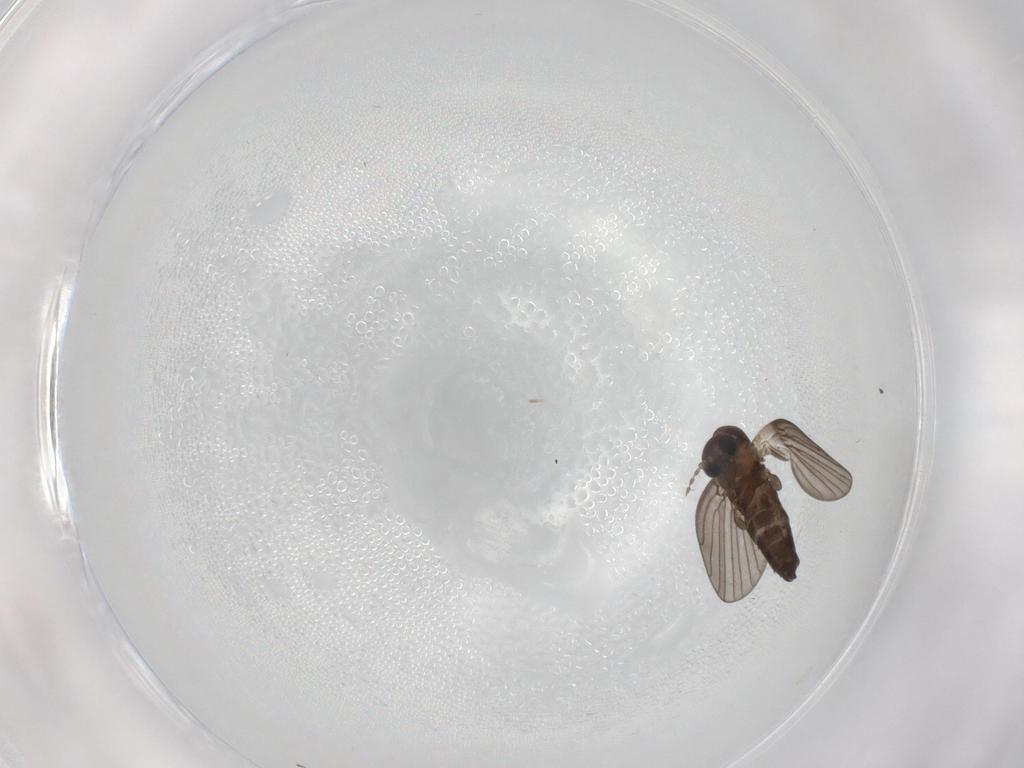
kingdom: Animalia
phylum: Arthropoda
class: Insecta
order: Diptera
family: Psychodidae
